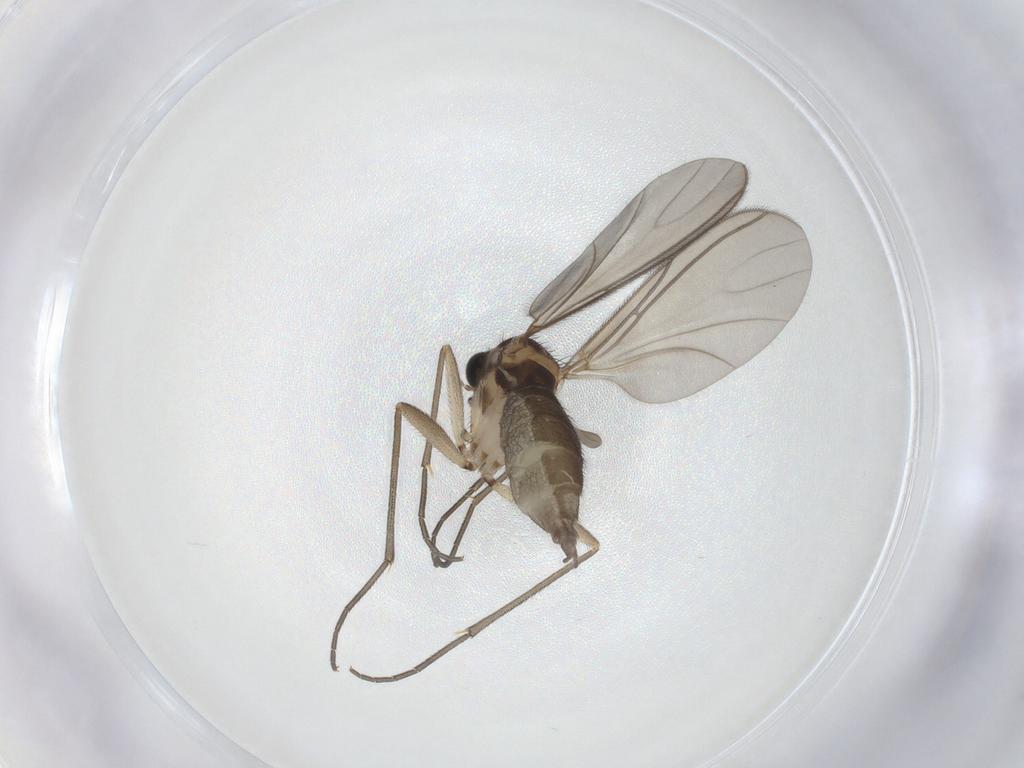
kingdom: Animalia
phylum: Arthropoda
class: Insecta
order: Diptera
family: Sciaridae
